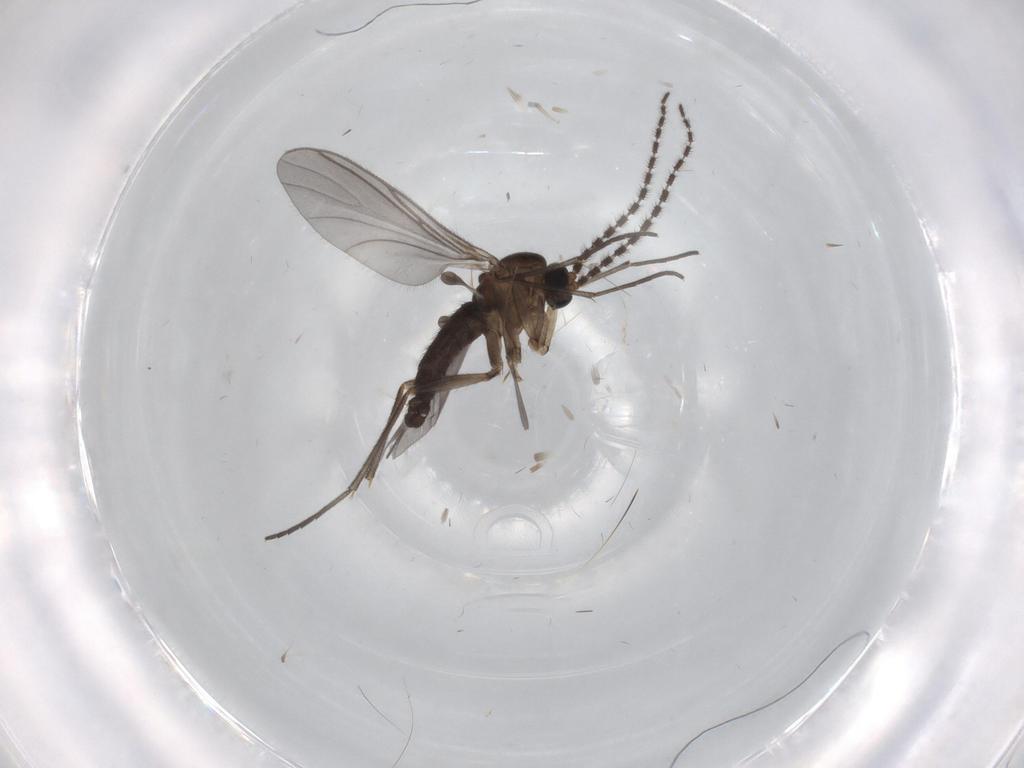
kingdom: Animalia
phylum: Arthropoda
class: Insecta
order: Diptera
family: Sciaridae
